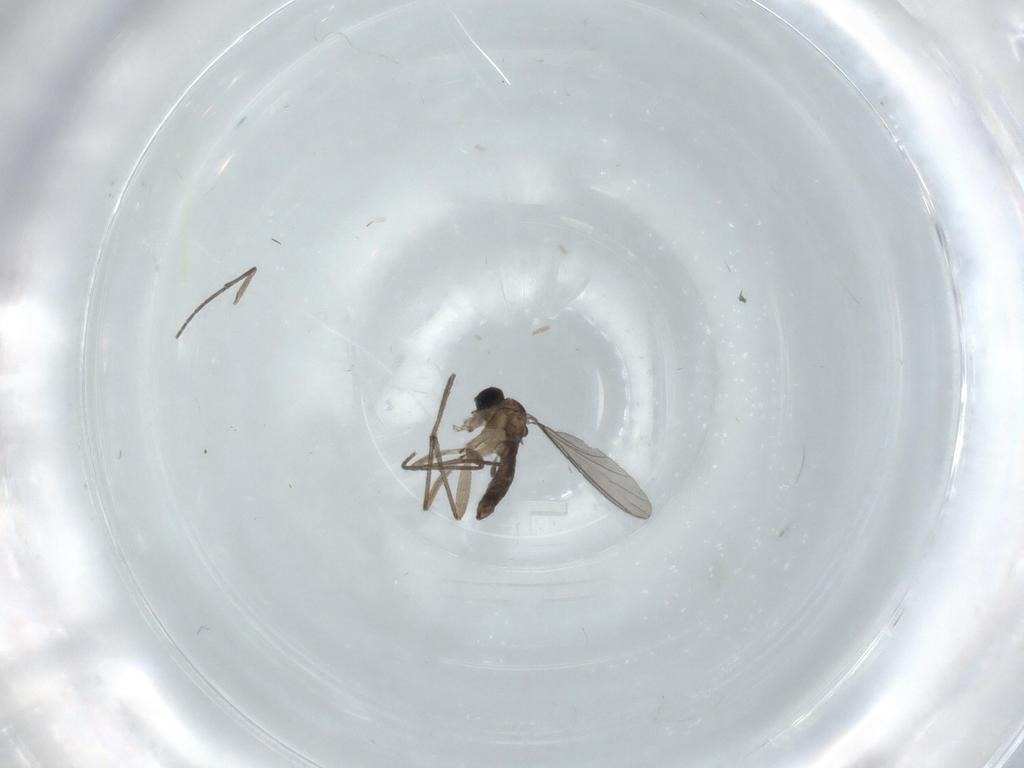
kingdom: Animalia
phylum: Arthropoda
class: Insecta
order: Diptera
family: Sciaridae
